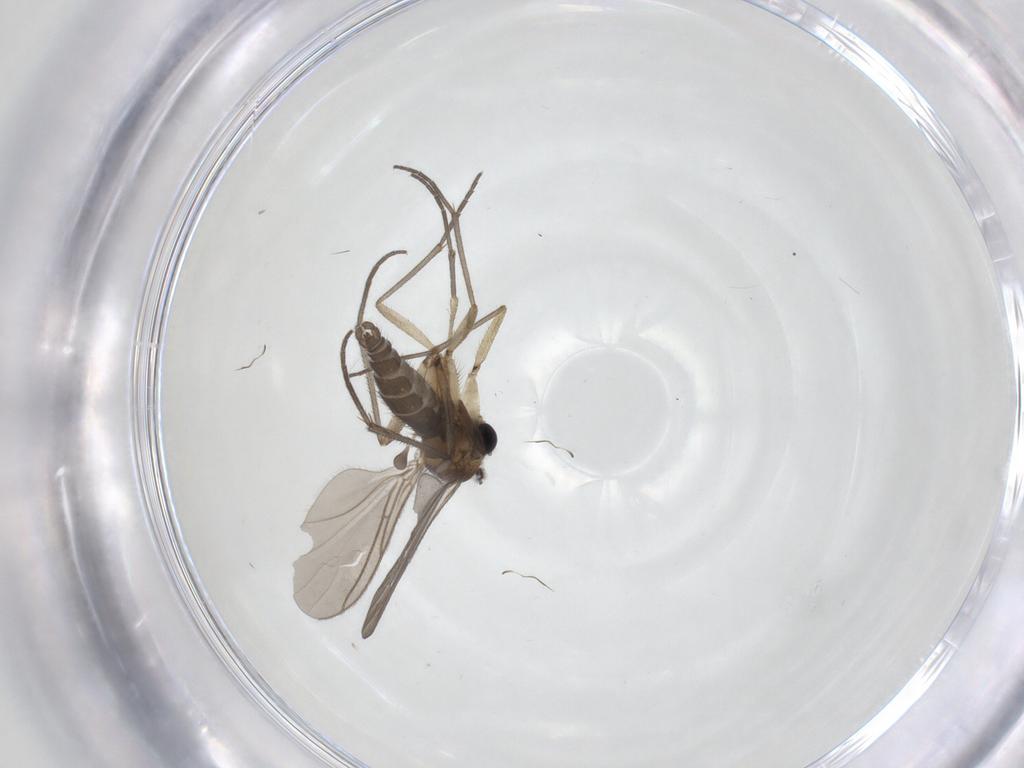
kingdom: Animalia
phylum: Arthropoda
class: Insecta
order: Diptera
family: Sciaridae
